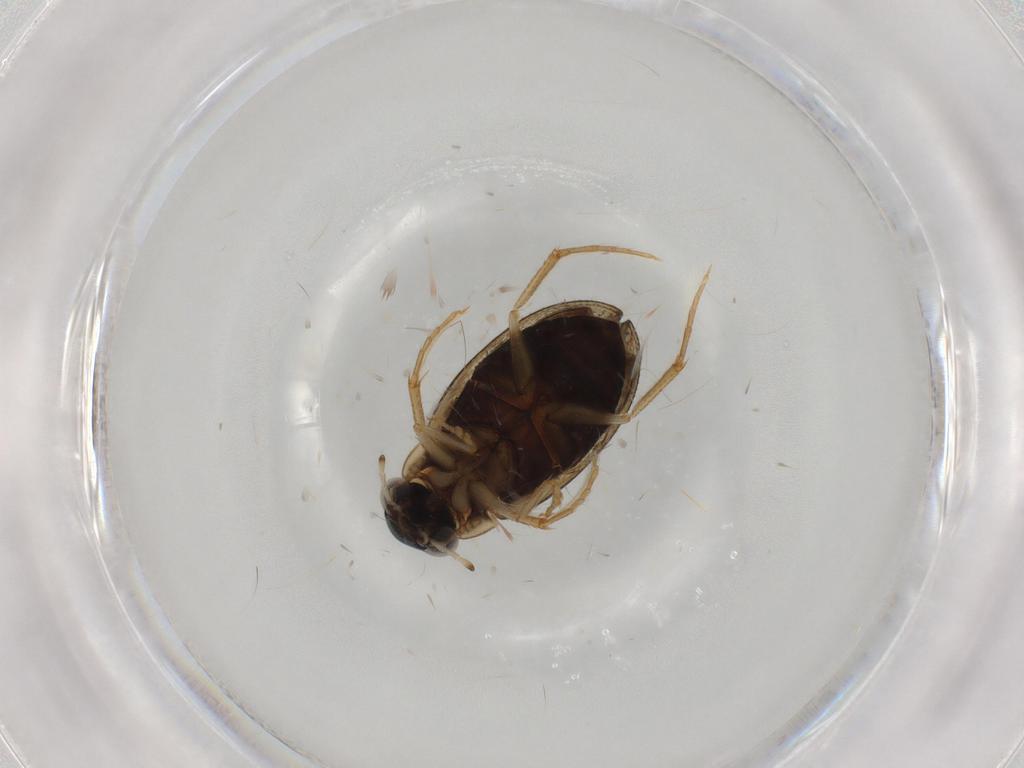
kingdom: Animalia
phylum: Arthropoda
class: Insecta
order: Coleoptera
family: Hydrophilidae
